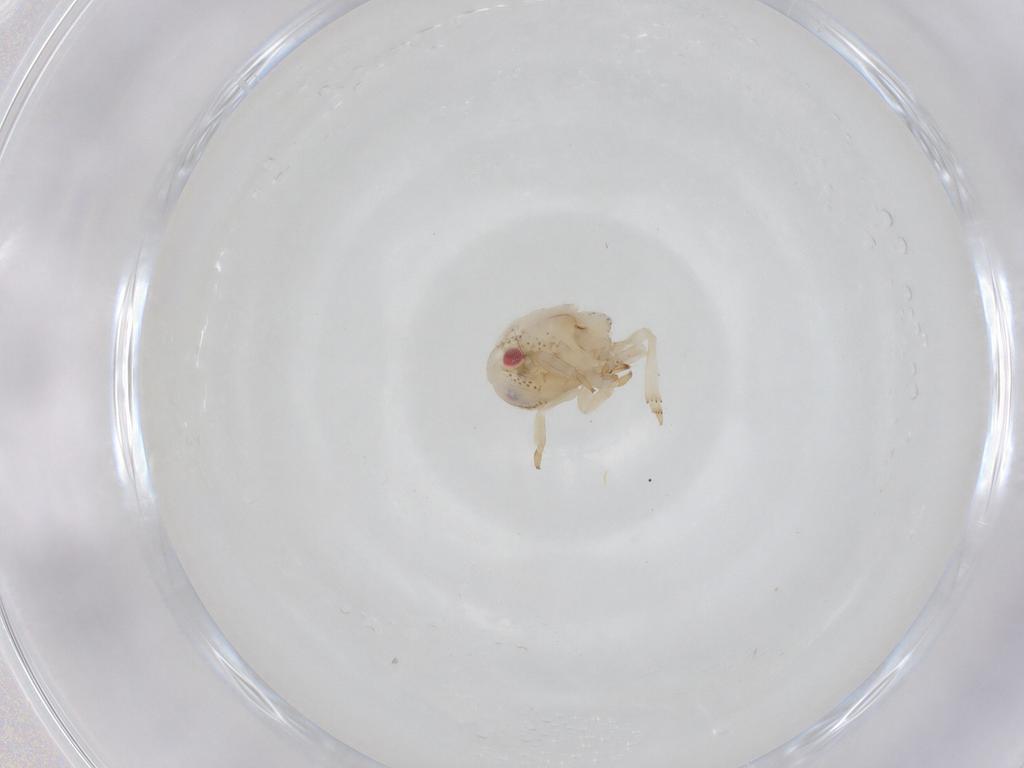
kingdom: Animalia
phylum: Arthropoda
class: Insecta
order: Hemiptera
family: Acanaloniidae
